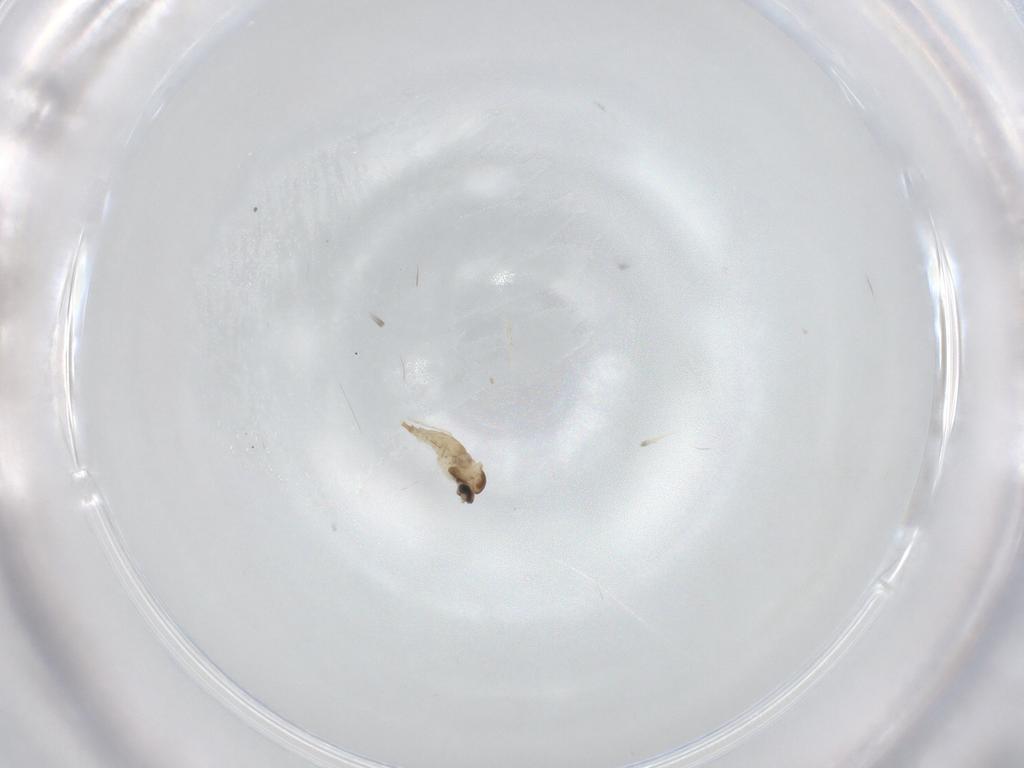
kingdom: Animalia
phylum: Arthropoda
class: Insecta
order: Diptera
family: Cecidomyiidae
